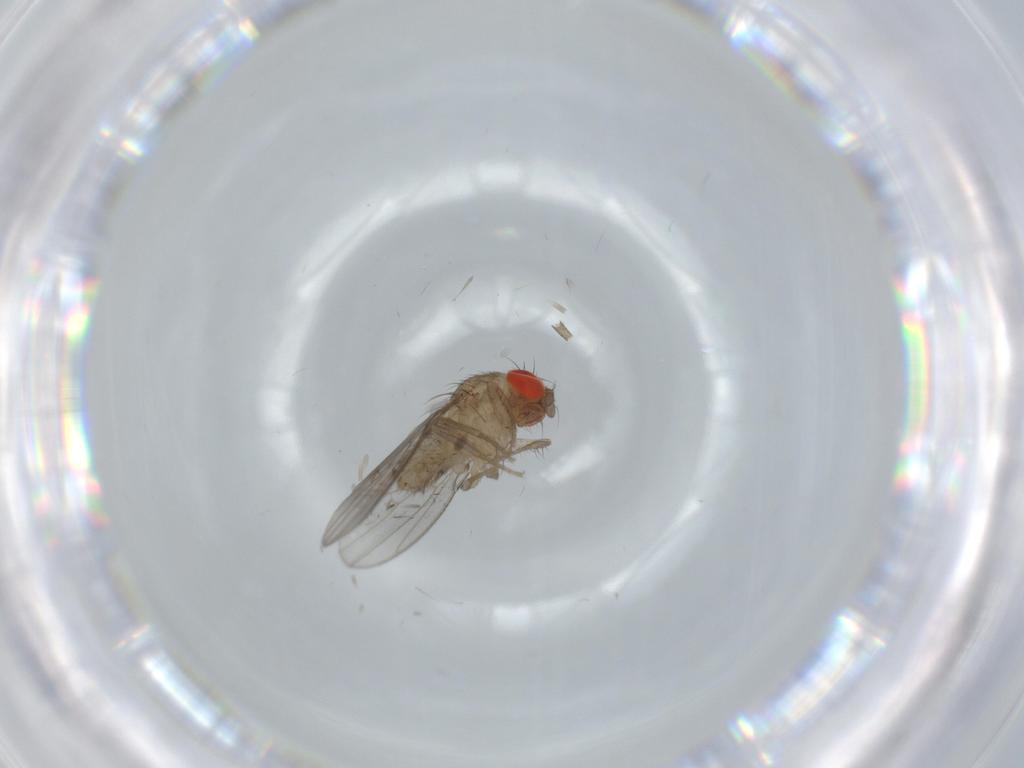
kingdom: Animalia
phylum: Arthropoda
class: Insecta
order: Diptera
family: Drosophilidae
